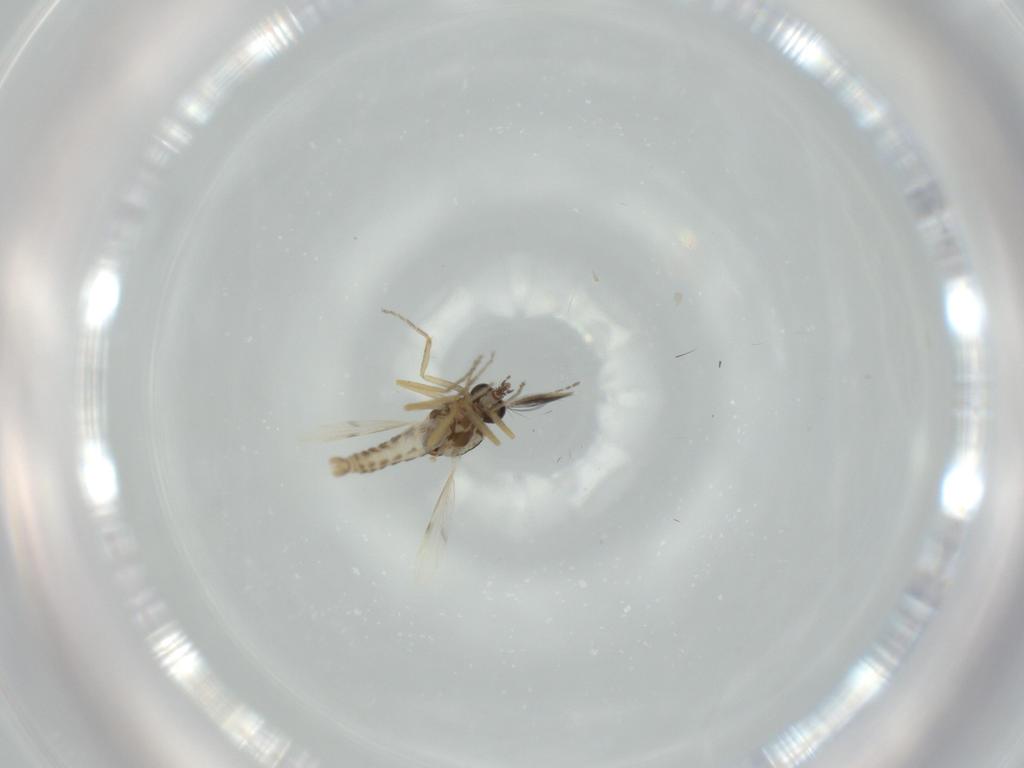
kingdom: Animalia
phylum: Arthropoda
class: Insecta
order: Diptera
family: Ceratopogonidae
